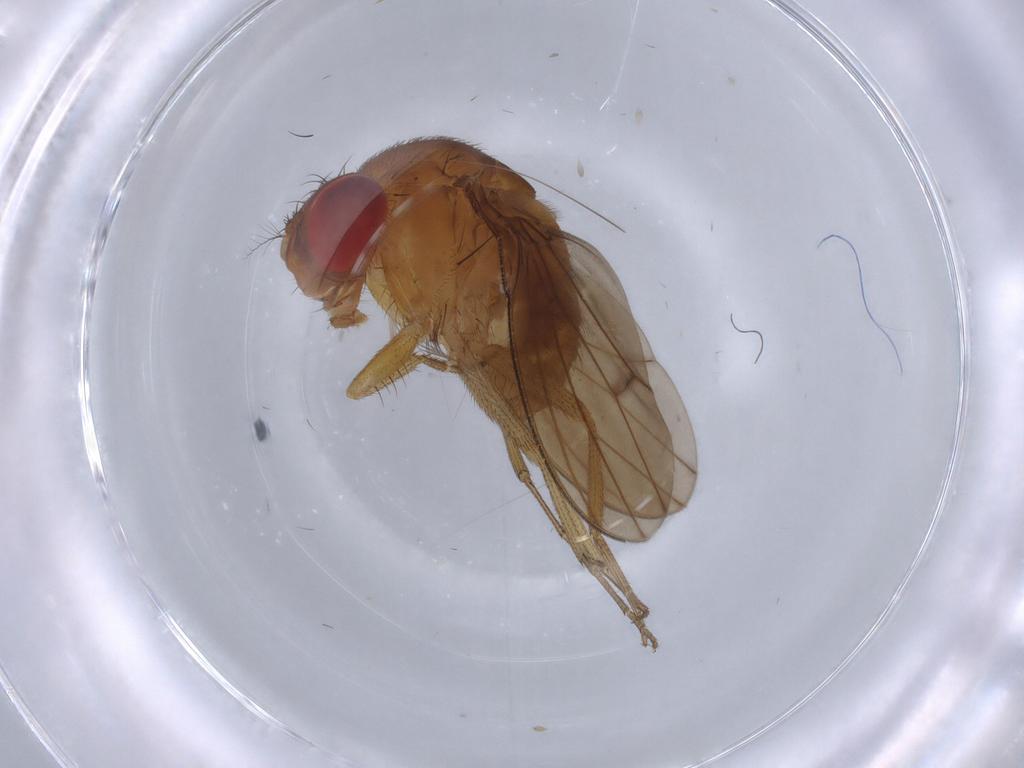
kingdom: Animalia
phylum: Arthropoda
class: Insecta
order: Diptera
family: Drosophilidae
